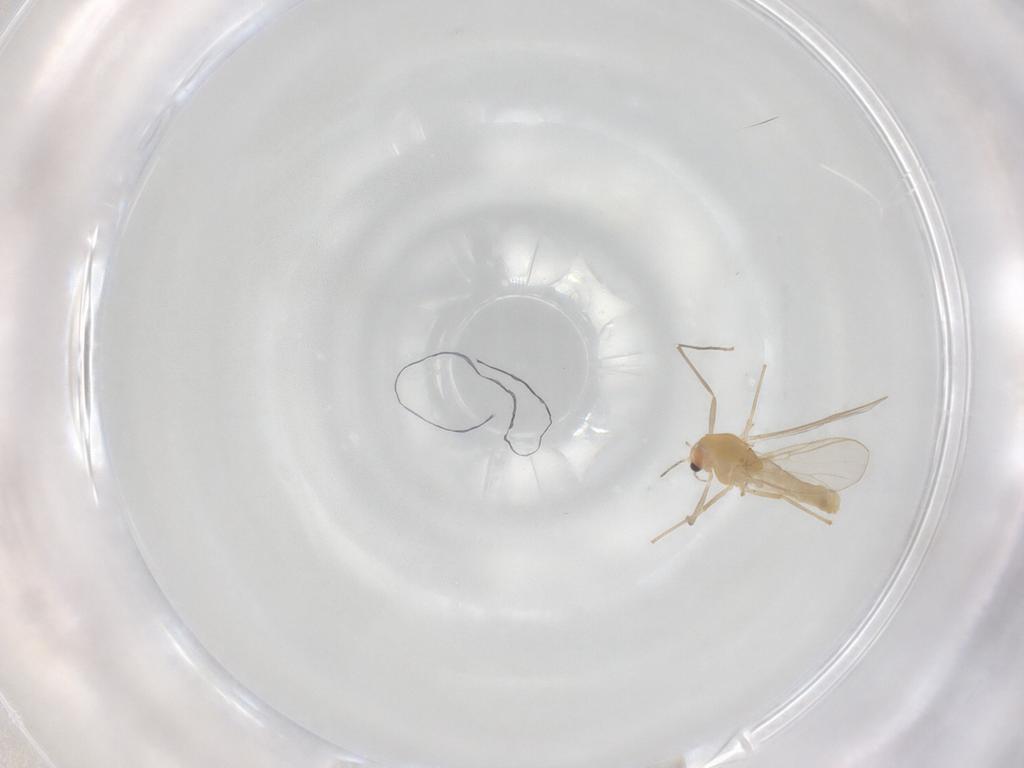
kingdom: Animalia
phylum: Arthropoda
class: Insecta
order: Diptera
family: Chironomidae
